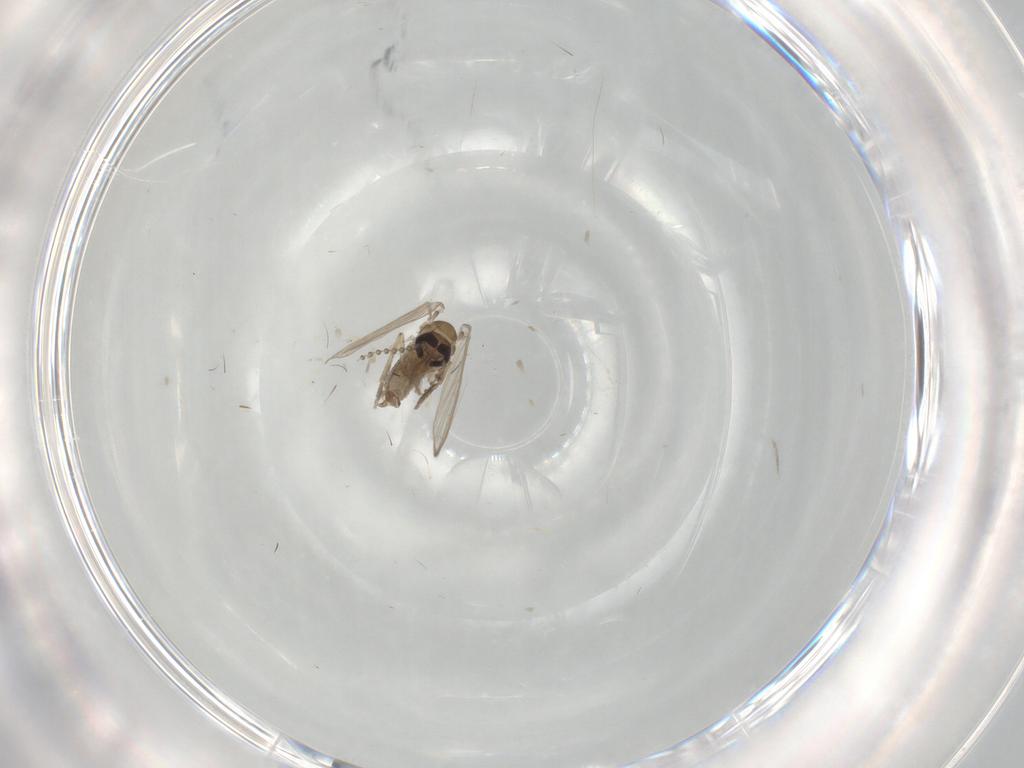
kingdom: Animalia
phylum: Arthropoda
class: Insecta
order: Diptera
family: Psychodidae
